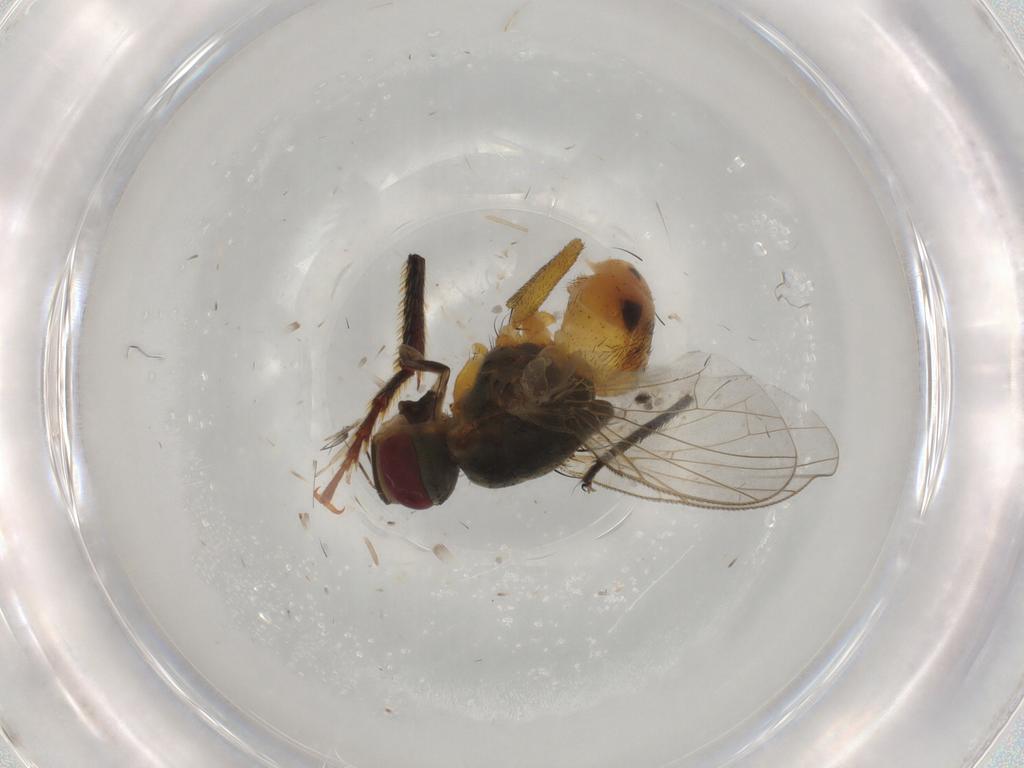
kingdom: Animalia
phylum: Arthropoda
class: Insecta
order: Diptera
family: Muscidae
